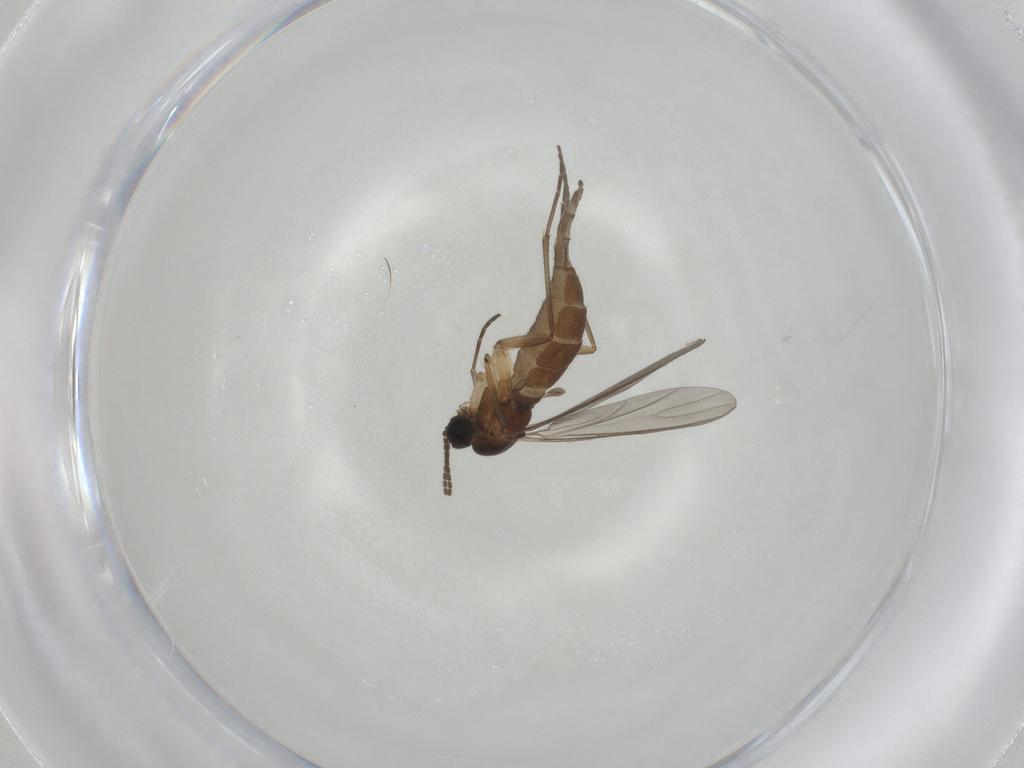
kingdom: Animalia
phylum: Arthropoda
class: Insecta
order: Diptera
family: Sciaridae
